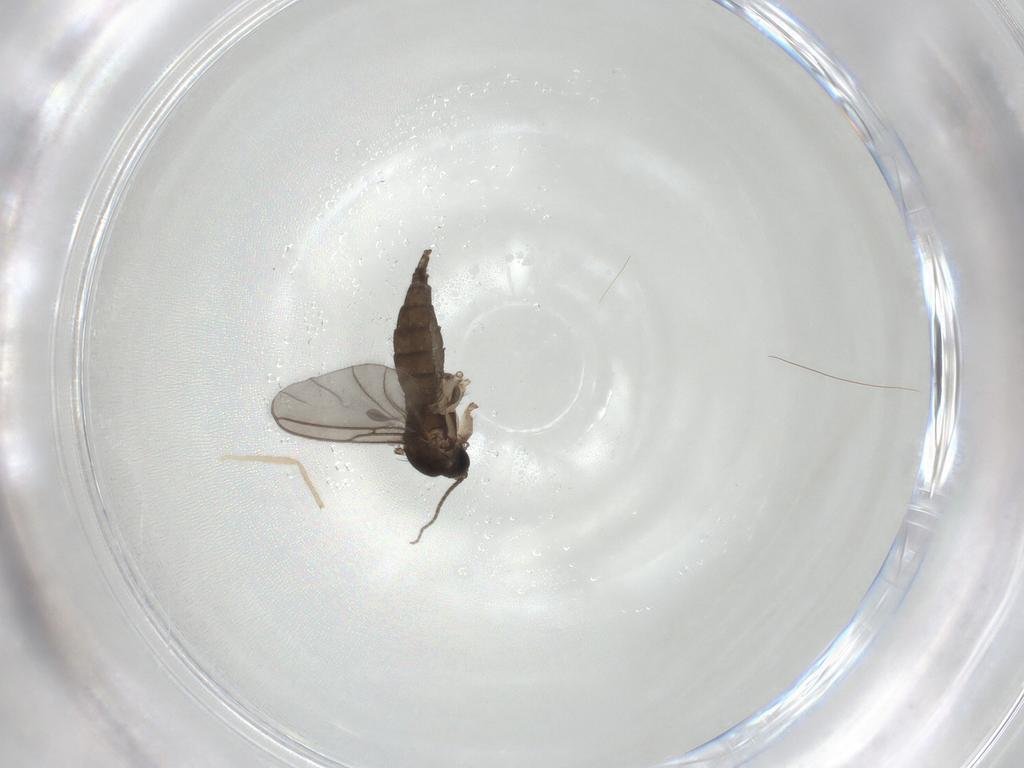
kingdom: Animalia
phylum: Arthropoda
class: Insecta
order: Diptera
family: Sciaridae
